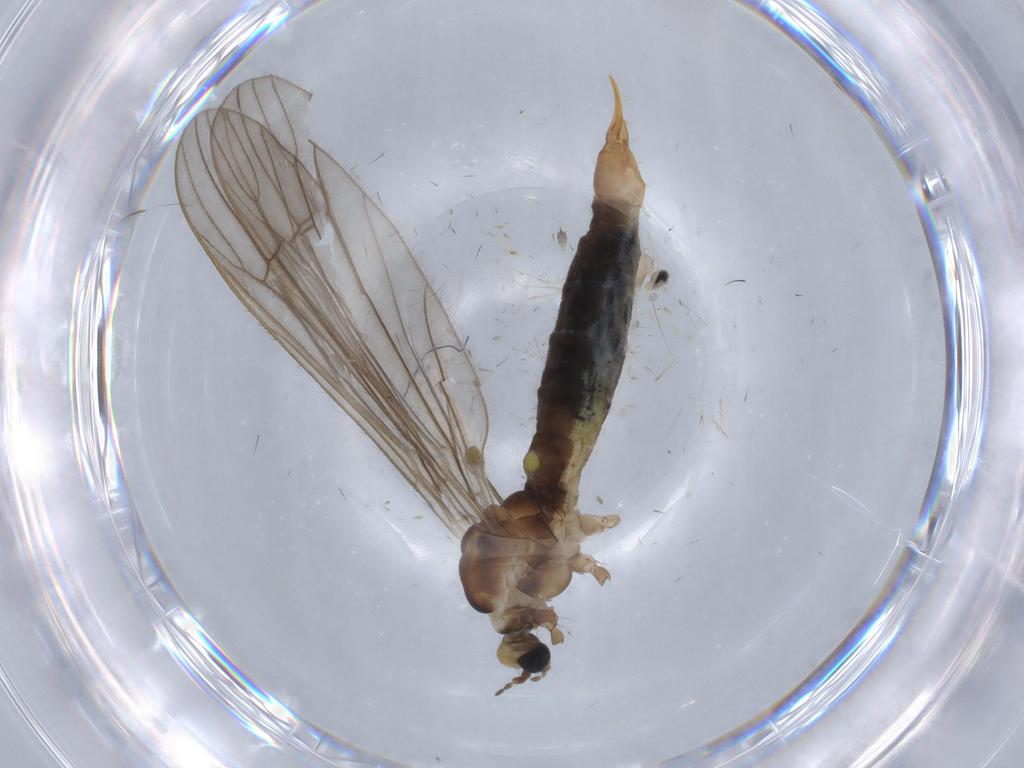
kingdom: Animalia
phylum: Arthropoda
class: Insecta
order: Diptera
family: Limoniidae
